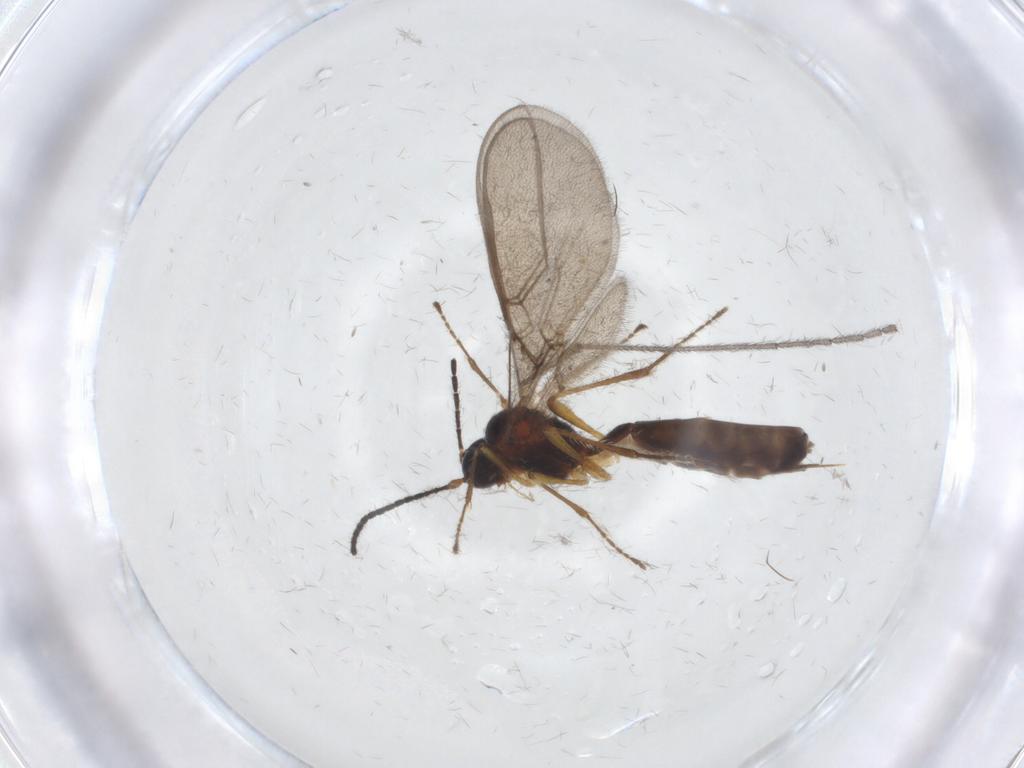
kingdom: Animalia
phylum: Arthropoda
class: Insecta
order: Hymenoptera
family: Braconidae
